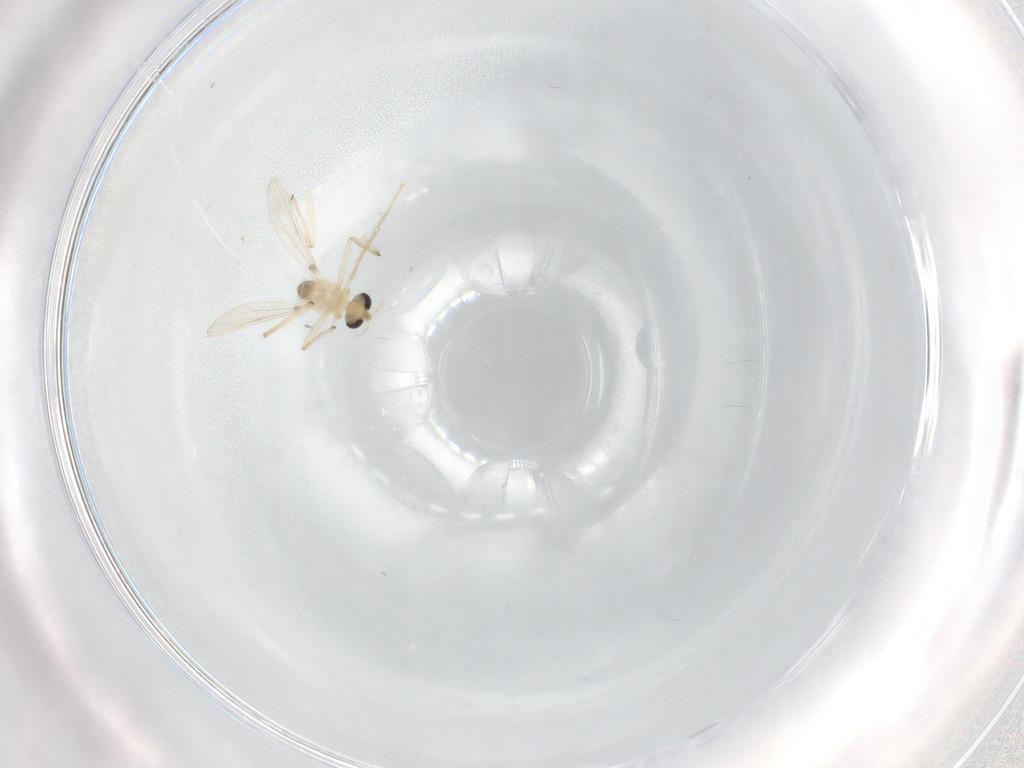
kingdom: Animalia
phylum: Arthropoda
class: Insecta
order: Diptera
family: Chironomidae
